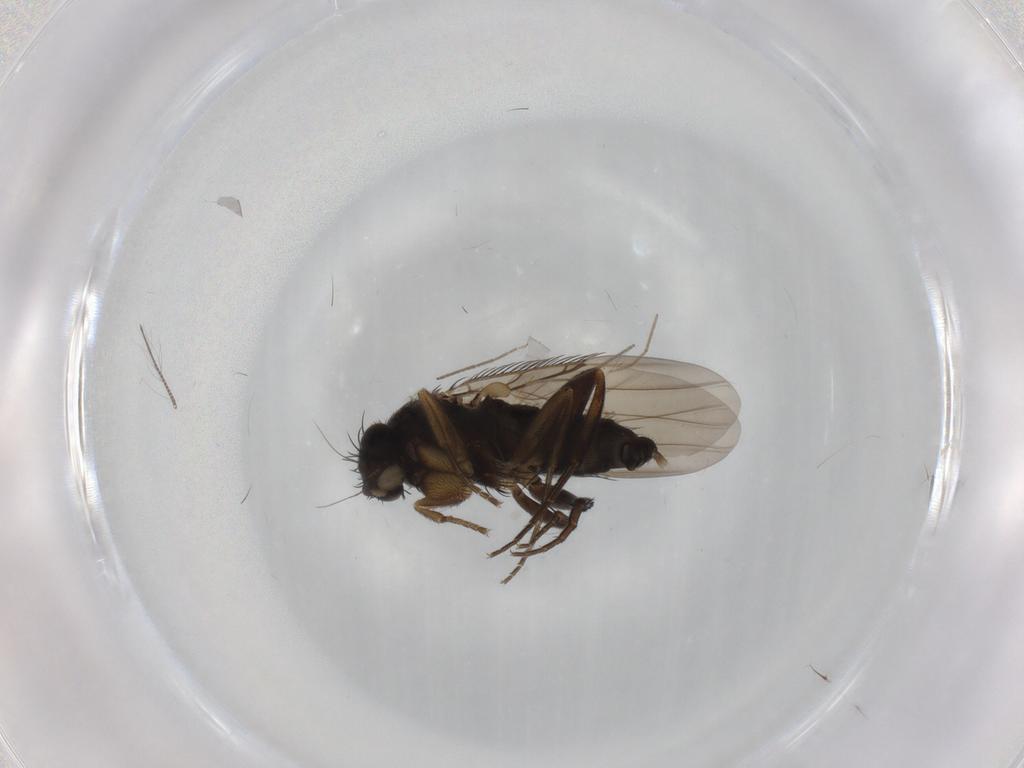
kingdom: Animalia
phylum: Arthropoda
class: Insecta
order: Diptera
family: Phoridae
